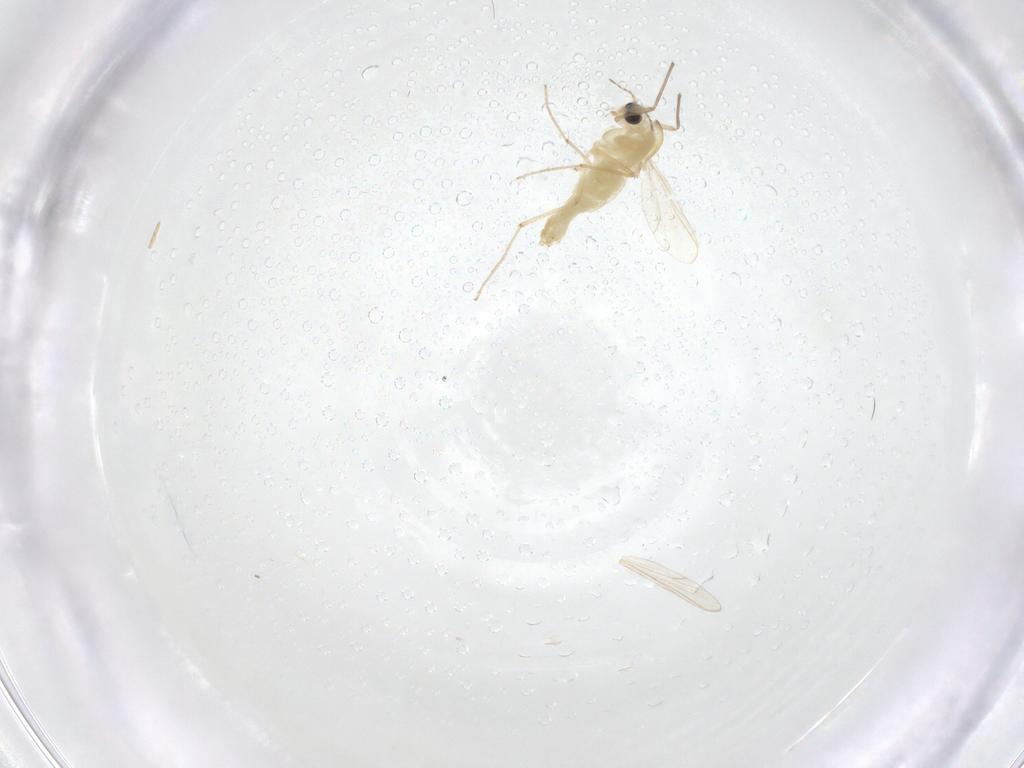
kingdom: Animalia
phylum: Arthropoda
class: Insecta
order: Diptera
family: Chironomidae
